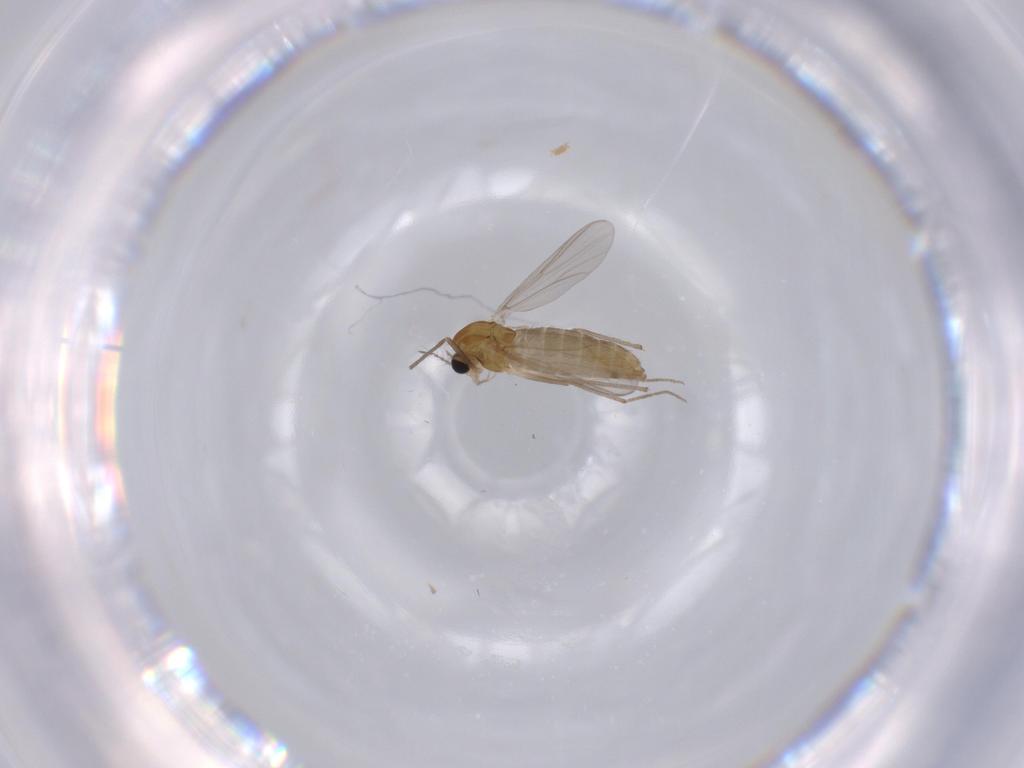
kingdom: Animalia
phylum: Arthropoda
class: Insecta
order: Diptera
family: Chironomidae
